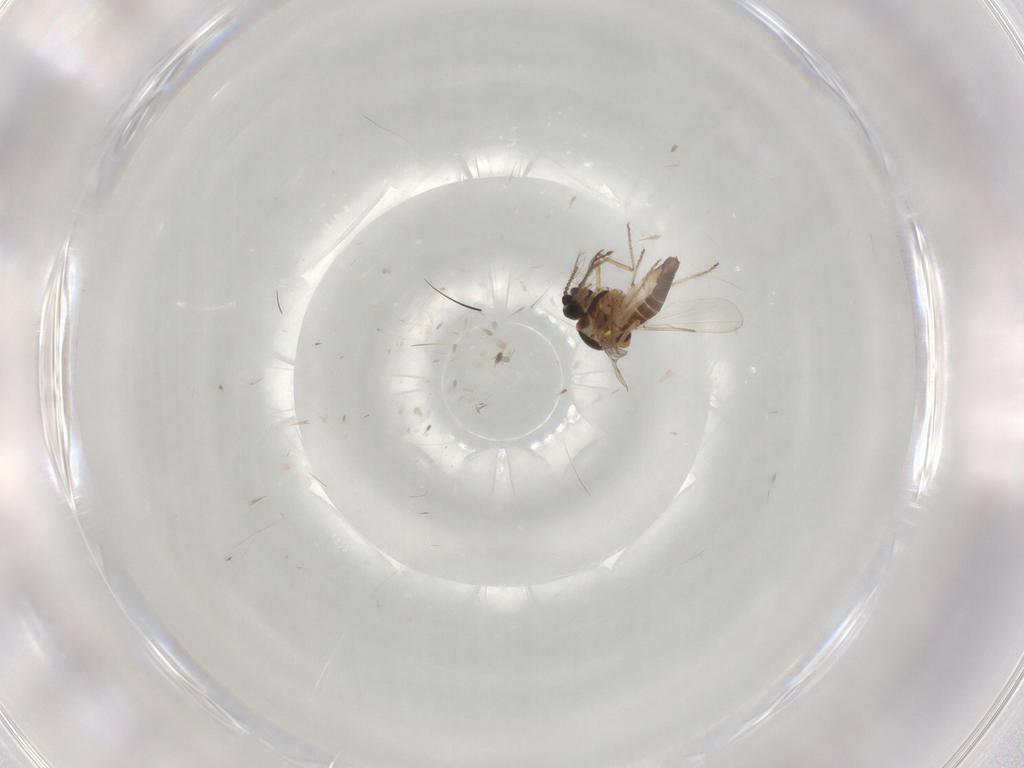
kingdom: Animalia
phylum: Arthropoda
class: Insecta
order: Diptera
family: Ceratopogonidae
